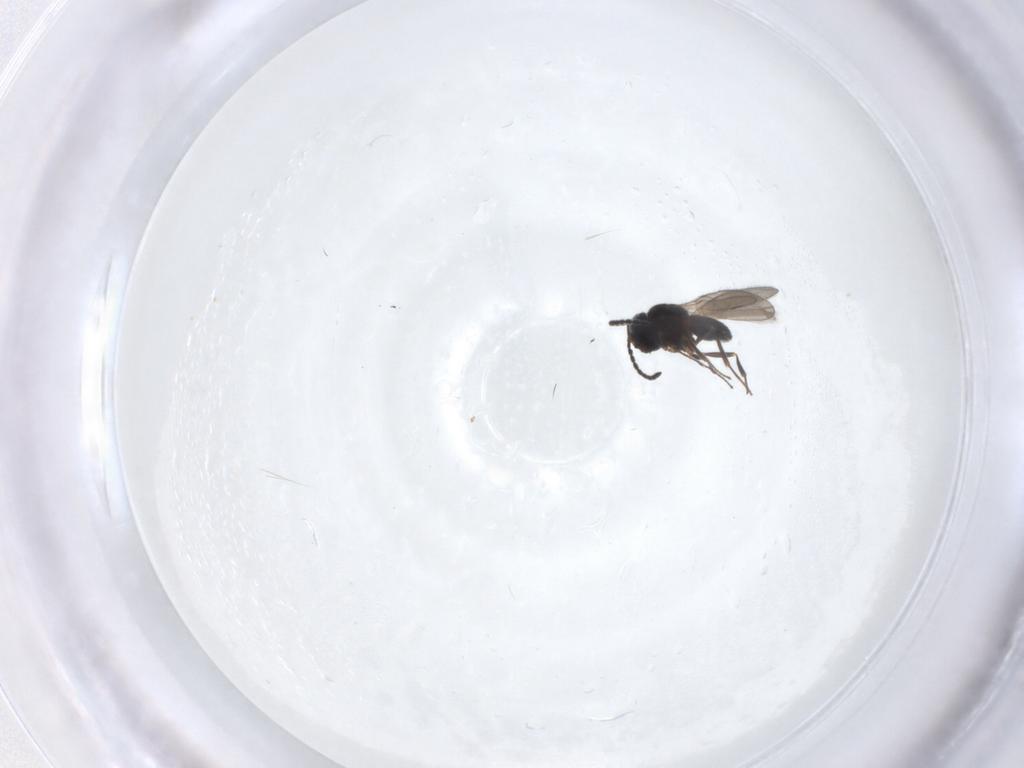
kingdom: Animalia
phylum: Arthropoda
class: Insecta
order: Hymenoptera
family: Scelionidae
